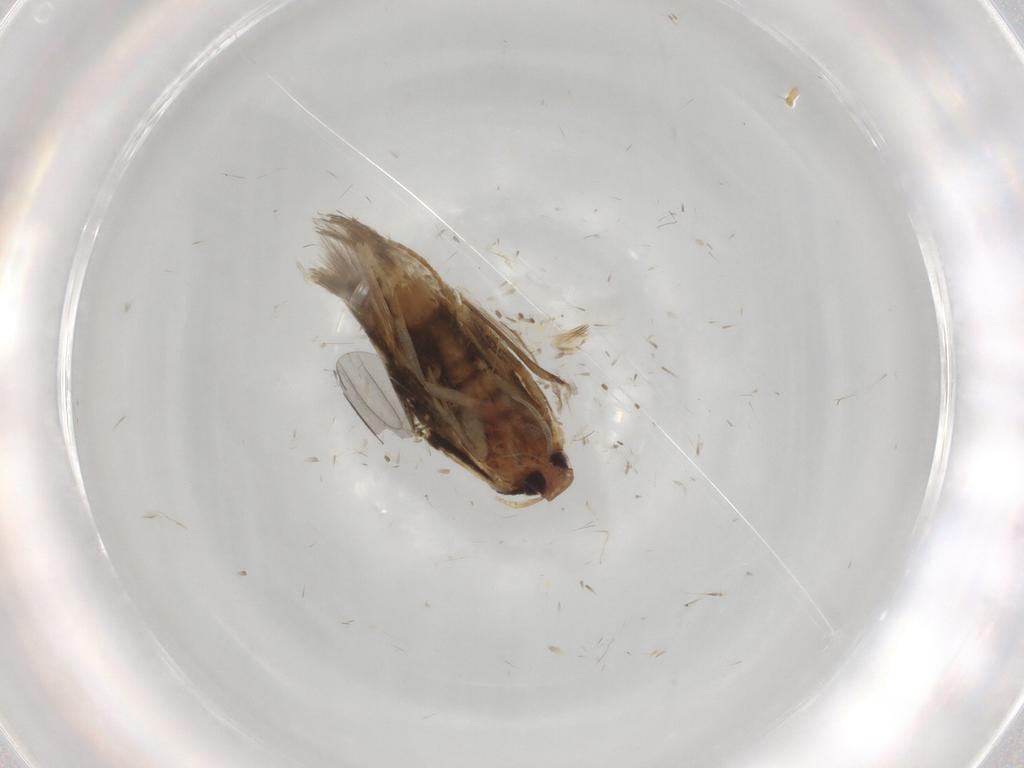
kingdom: Animalia
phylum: Arthropoda
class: Insecta
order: Lepidoptera
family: Cosmopterigidae
